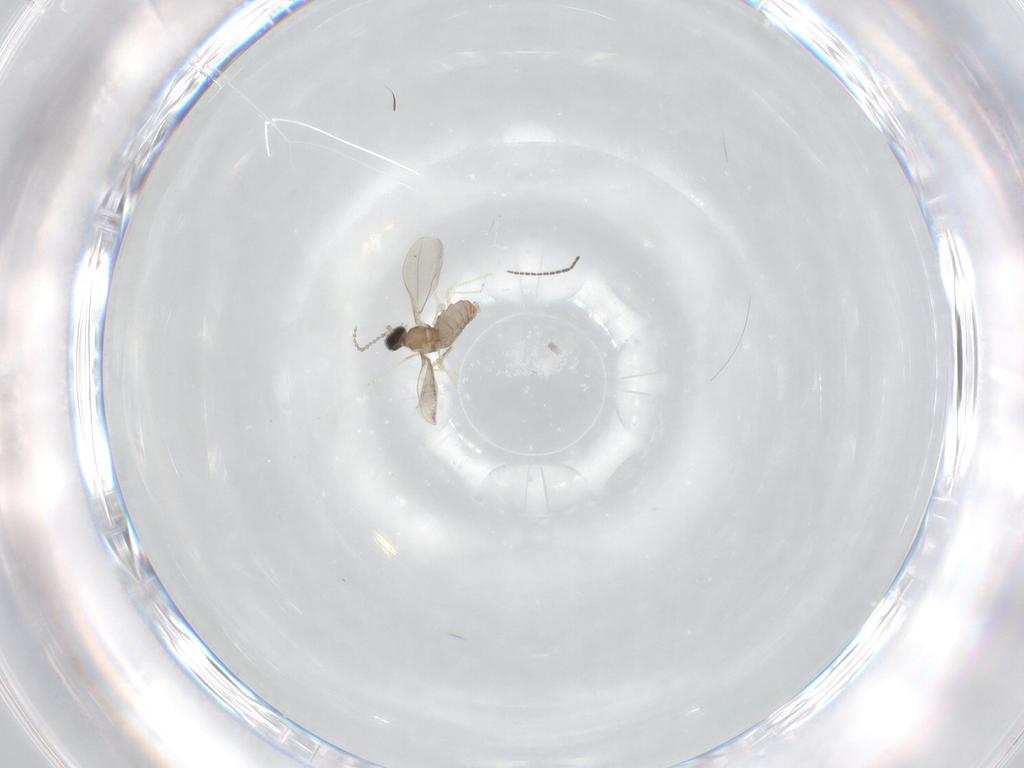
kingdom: Animalia
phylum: Arthropoda
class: Insecta
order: Diptera
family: Cecidomyiidae
